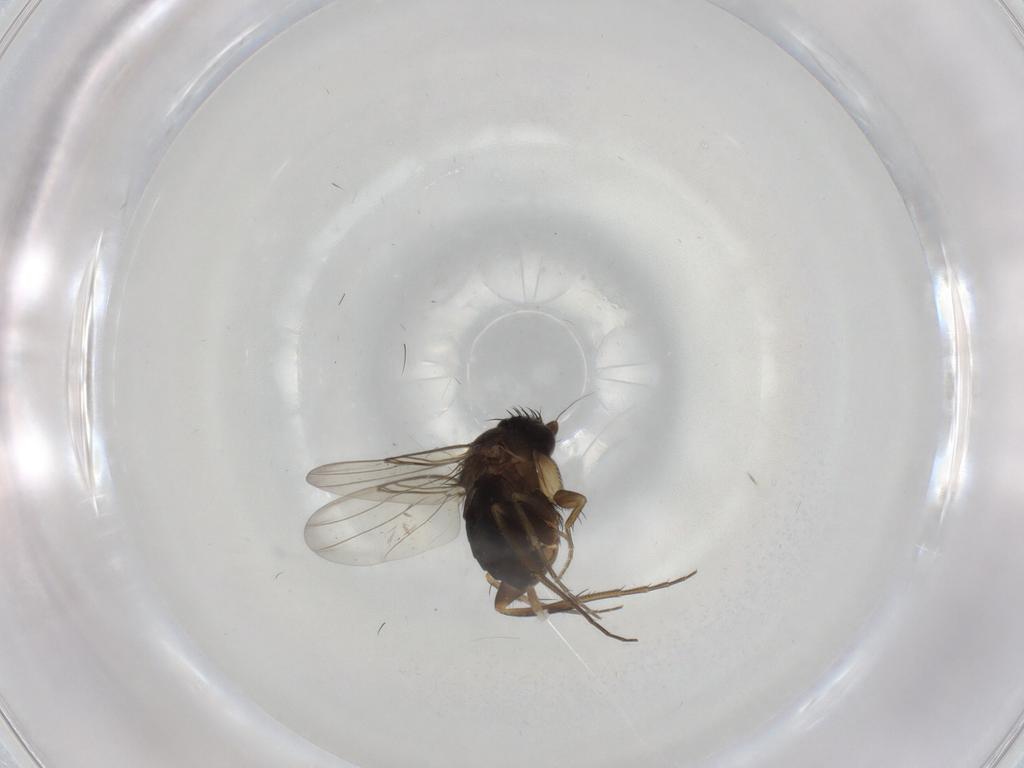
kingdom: Animalia
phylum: Arthropoda
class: Insecta
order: Diptera
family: Phoridae
